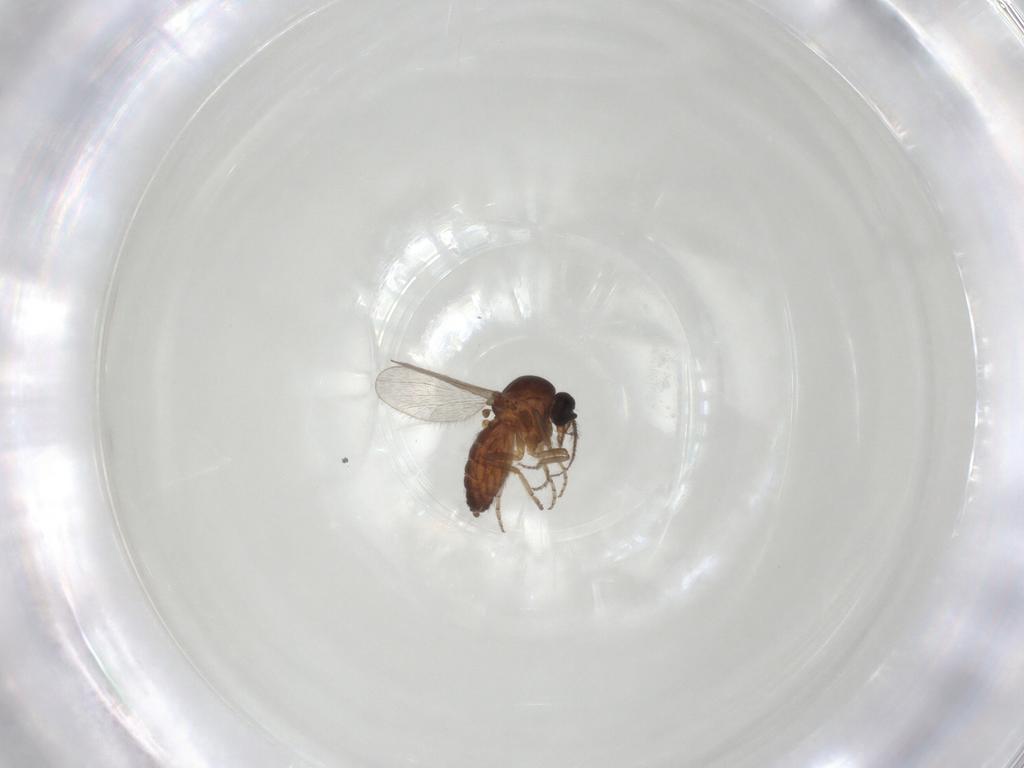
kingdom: Animalia
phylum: Arthropoda
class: Insecta
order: Diptera
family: Ceratopogonidae
